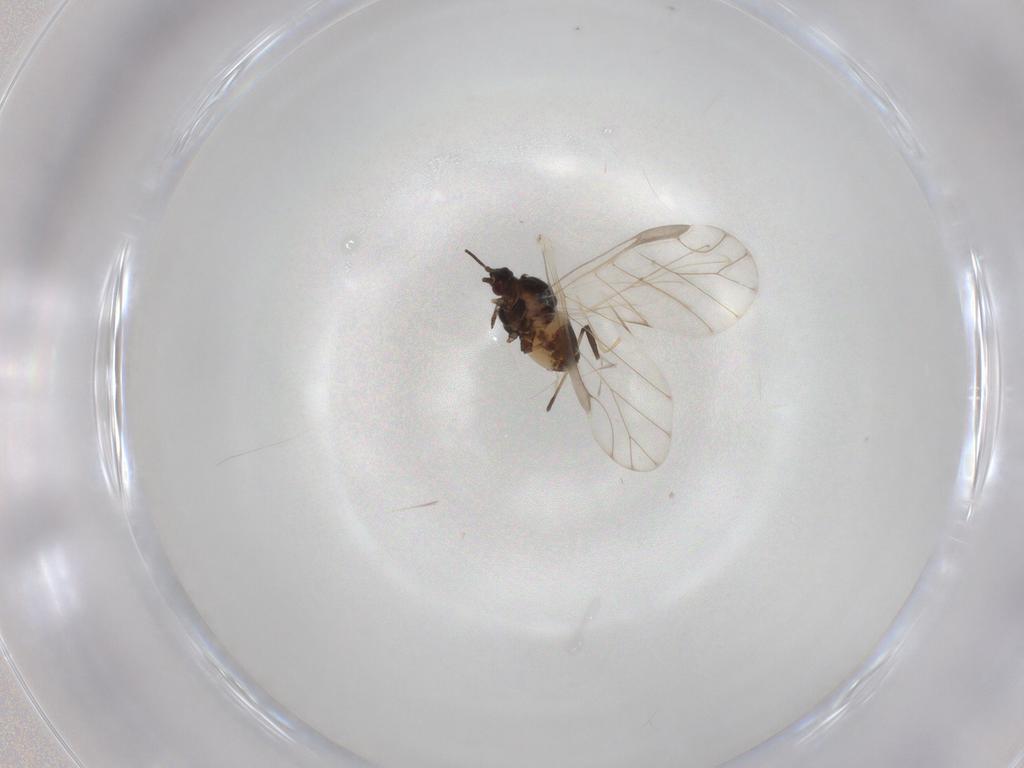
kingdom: Animalia
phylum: Arthropoda
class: Insecta
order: Hemiptera
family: Aphididae
